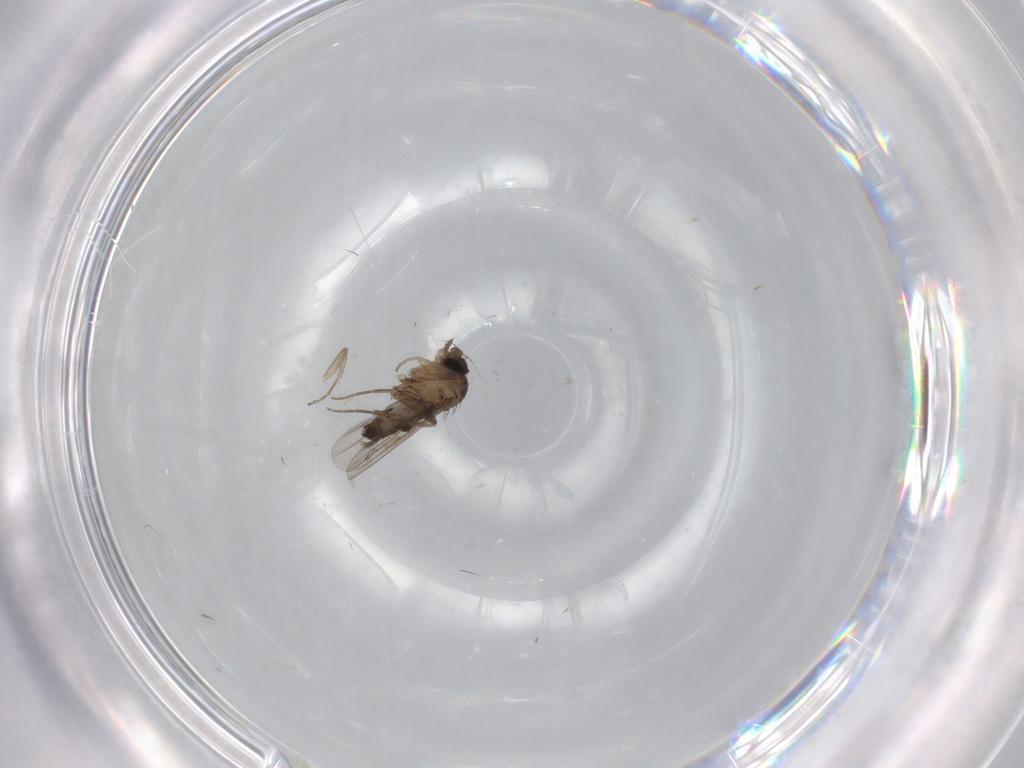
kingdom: Animalia
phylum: Arthropoda
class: Insecta
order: Diptera
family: Phoridae
